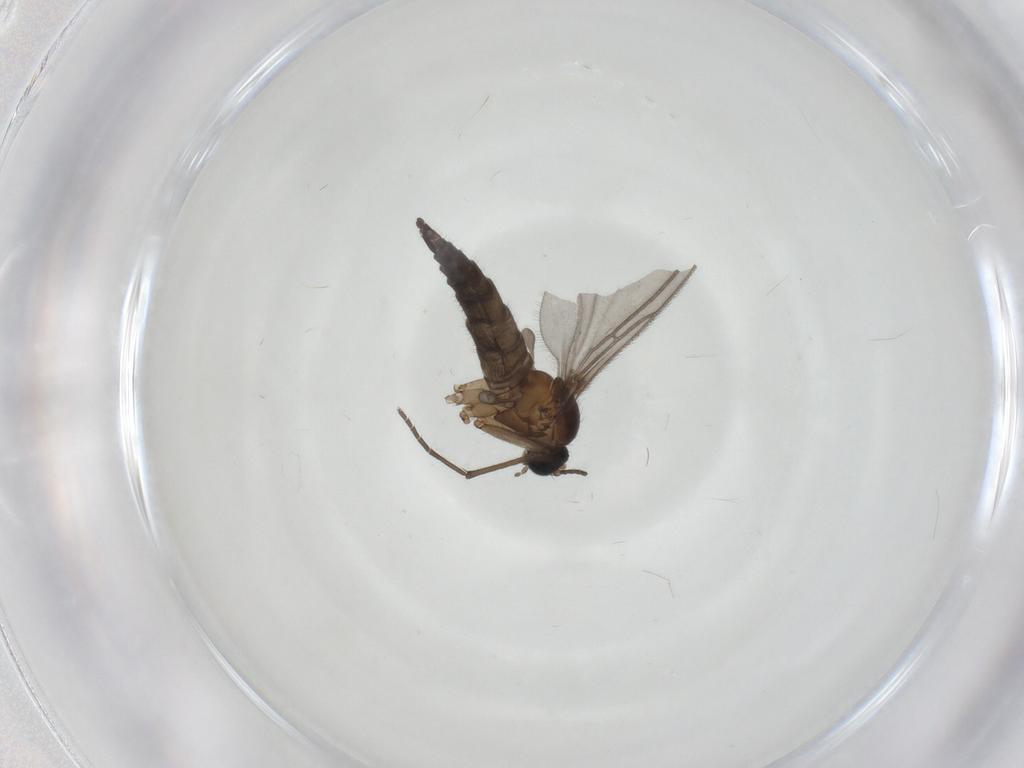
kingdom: Animalia
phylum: Arthropoda
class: Insecta
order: Diptera
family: Sciaridae
